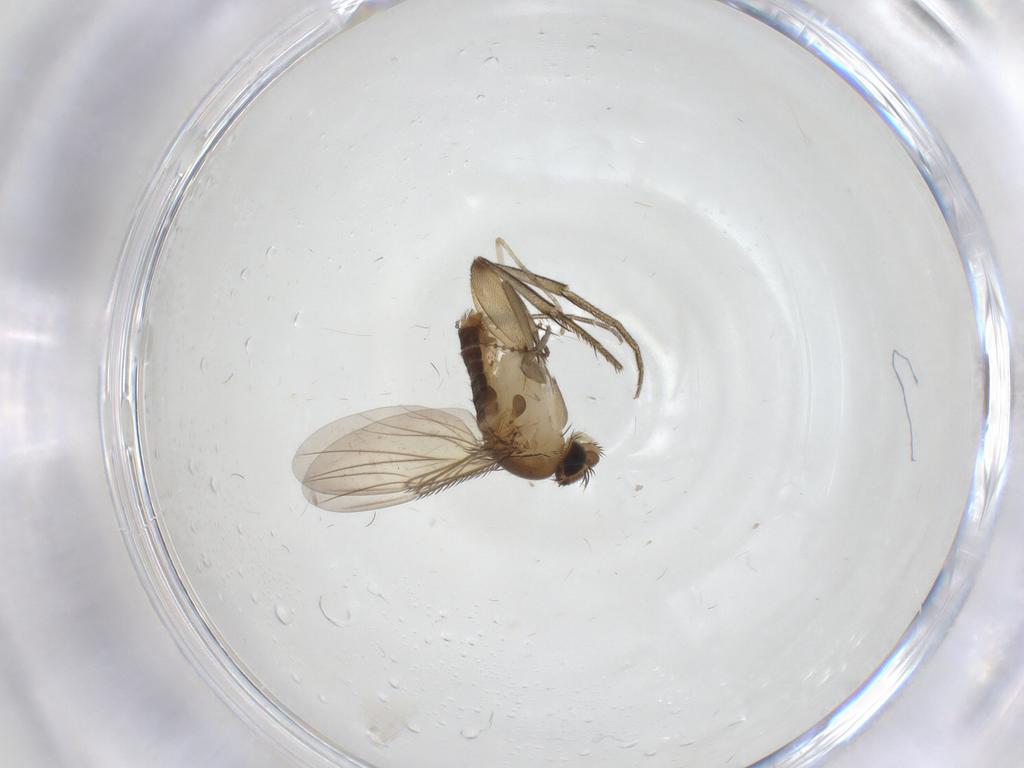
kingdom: Animalia
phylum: Arthropoda
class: Insecta
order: Diptera
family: Phoridae
